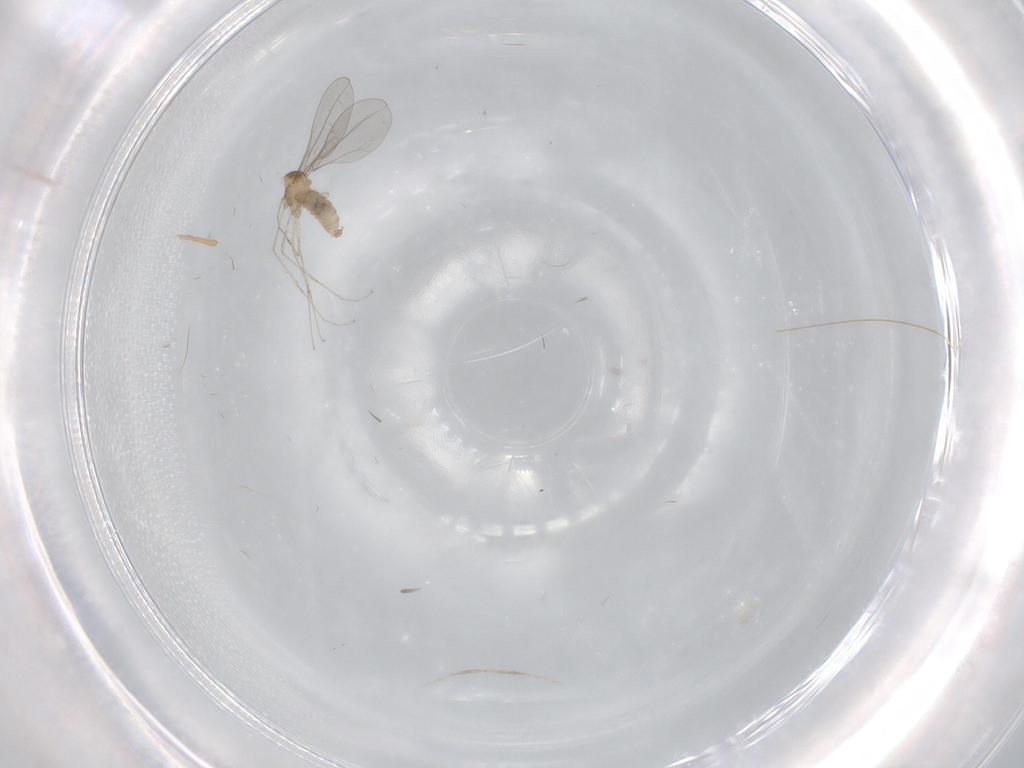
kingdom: Animalia
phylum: Arthropoda
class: Insecta
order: Diptera
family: Cecidomyiidae
